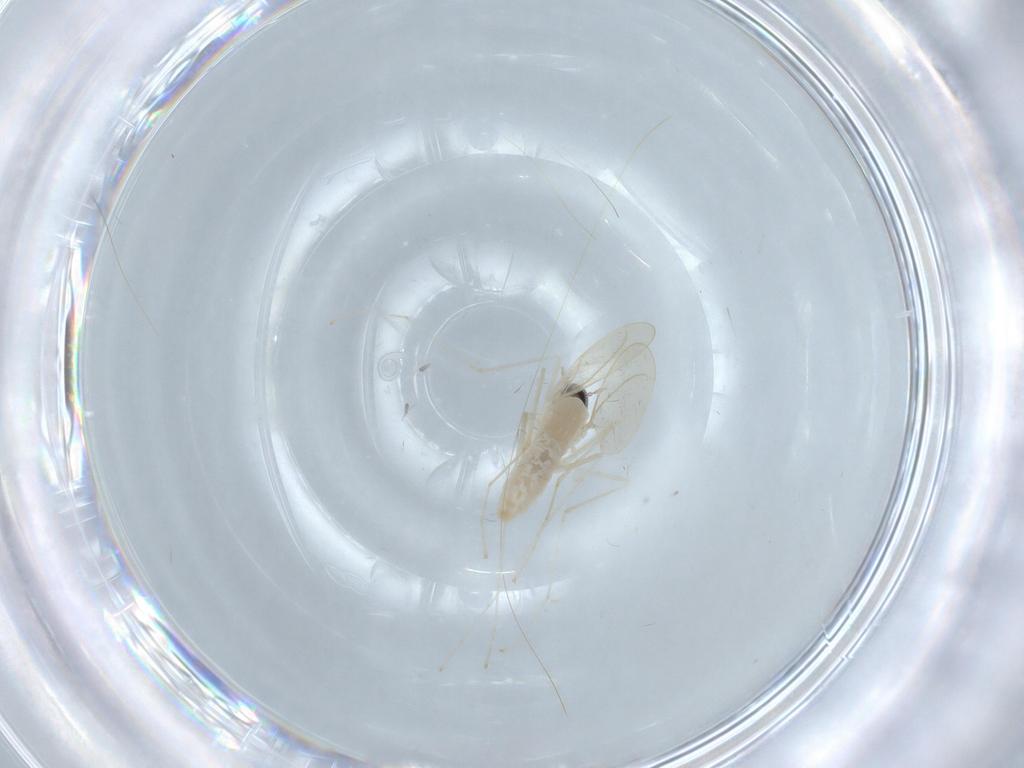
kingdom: Animalia
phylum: Arthropoda
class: Insecta
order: Diptera
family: Cecidomyiidae
